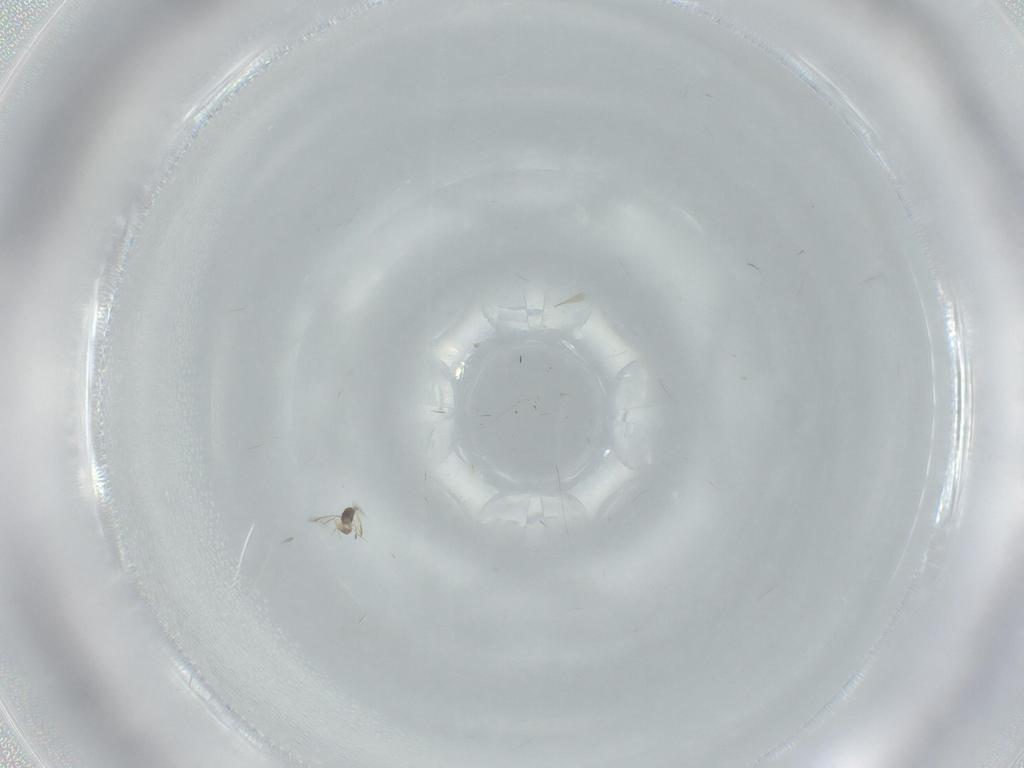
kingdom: Animalia
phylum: Arthropoda
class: Insecta
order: Hymenoptera
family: Mymaridae
